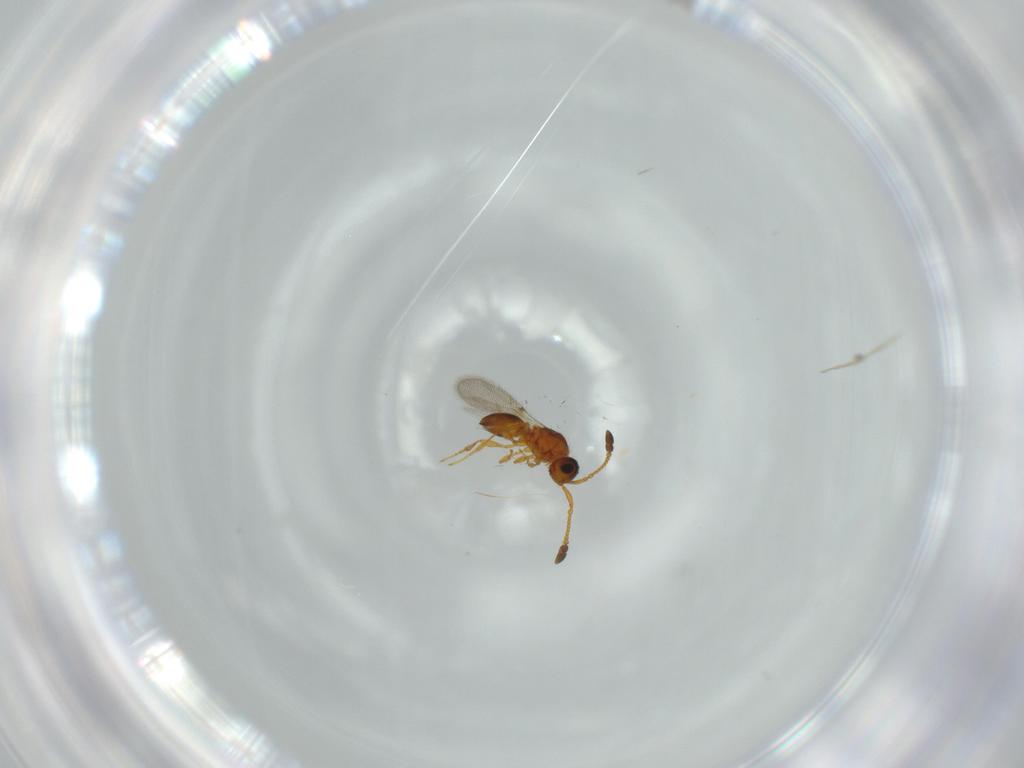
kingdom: Animalia
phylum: Arthropoda
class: Insecta
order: Hymenoptera
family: Diapriidae
